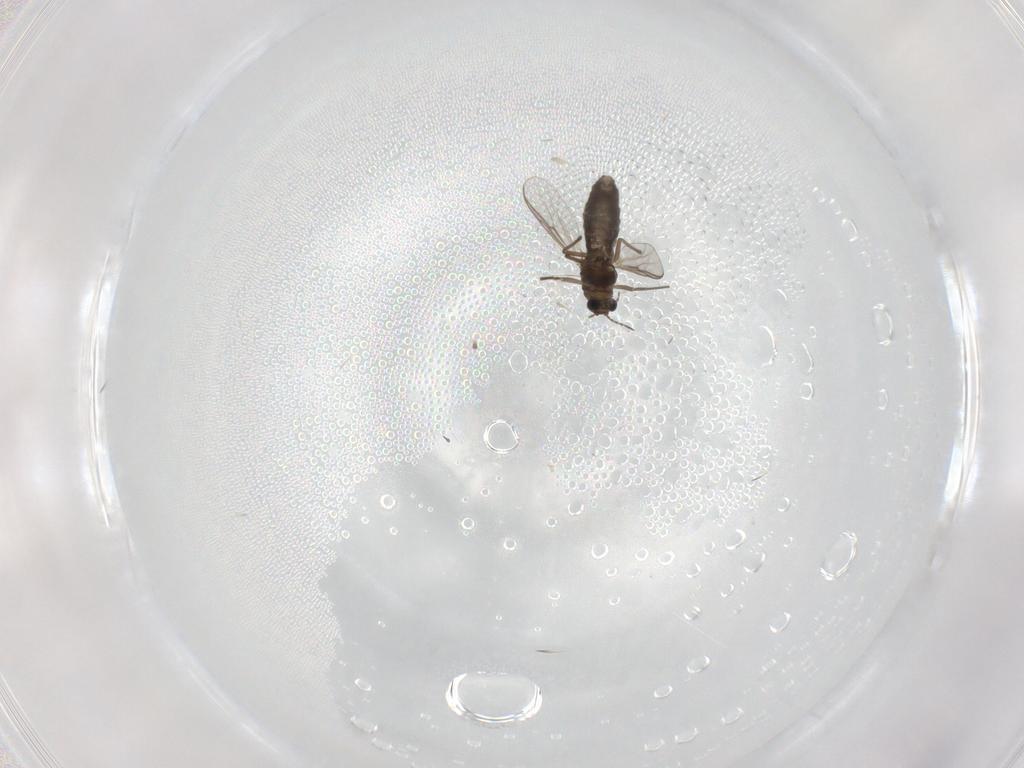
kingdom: Animalia
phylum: Arthropoda
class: Insecta
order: Diptera
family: Chironomidae
